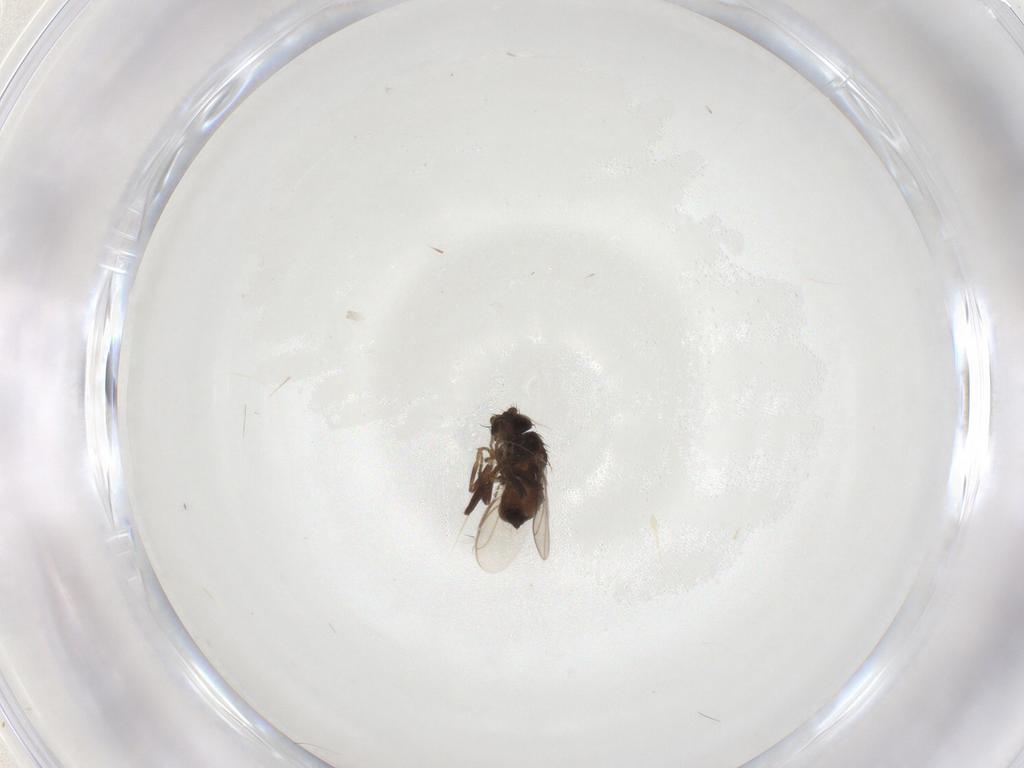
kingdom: Animalia
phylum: Arthropoda
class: Insecta
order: Diptera
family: Sphaeroceridae
